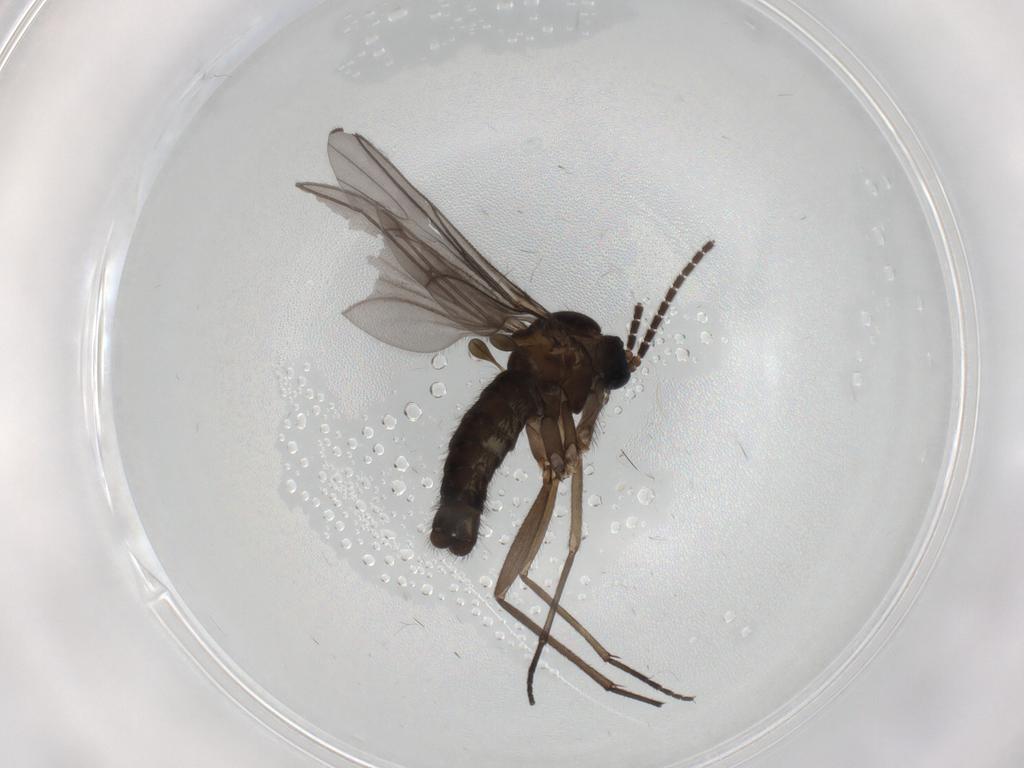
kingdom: Animalia
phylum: Arthropoda
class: Insecta
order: Diptera
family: Sciaridae
